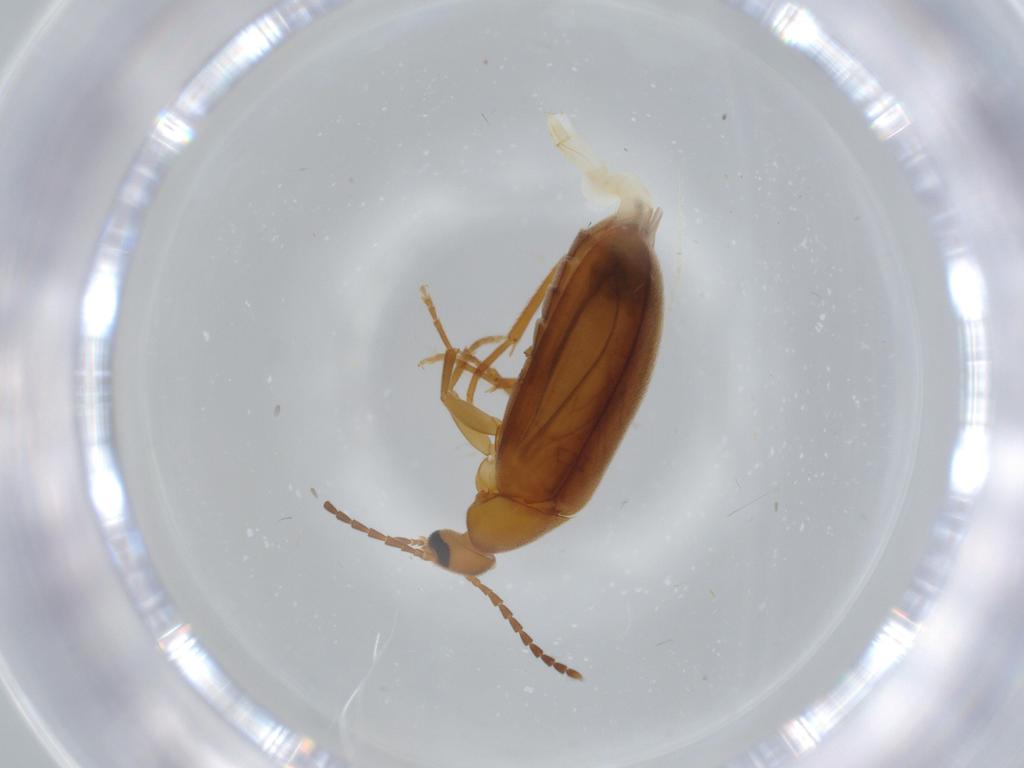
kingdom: Animalia
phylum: Arthropoda
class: Insecta
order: Coleoptera
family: Scraptiidae
